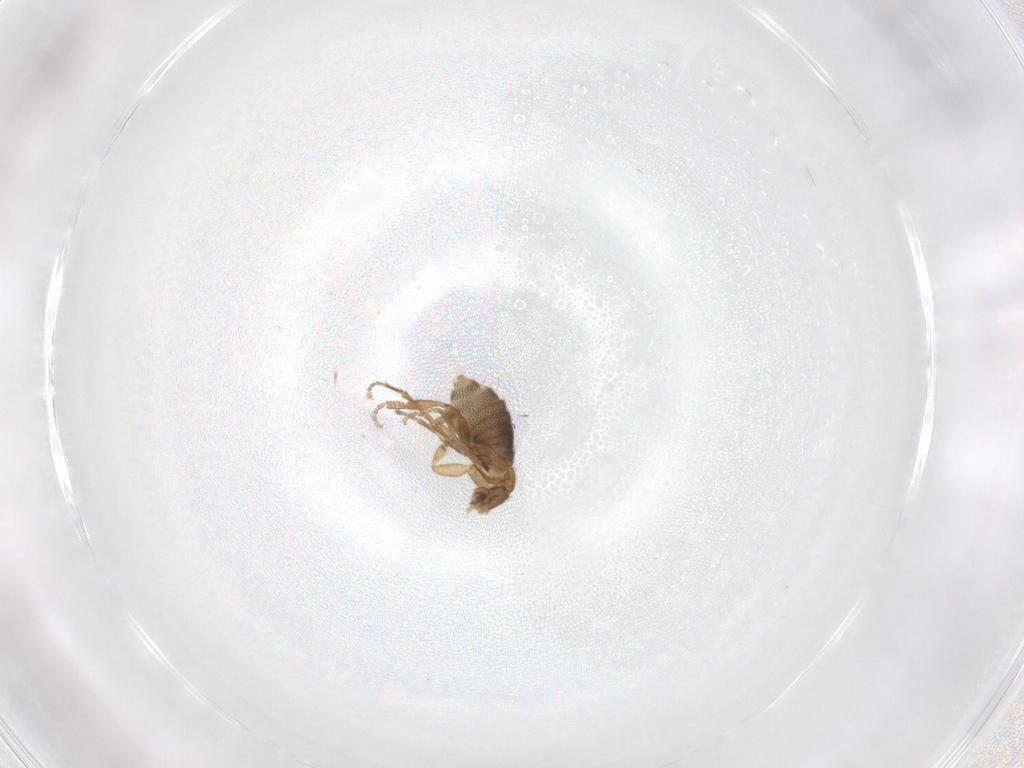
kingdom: Animalia
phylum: Arthropoda
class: Insecta
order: Diptera
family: Phoridae
